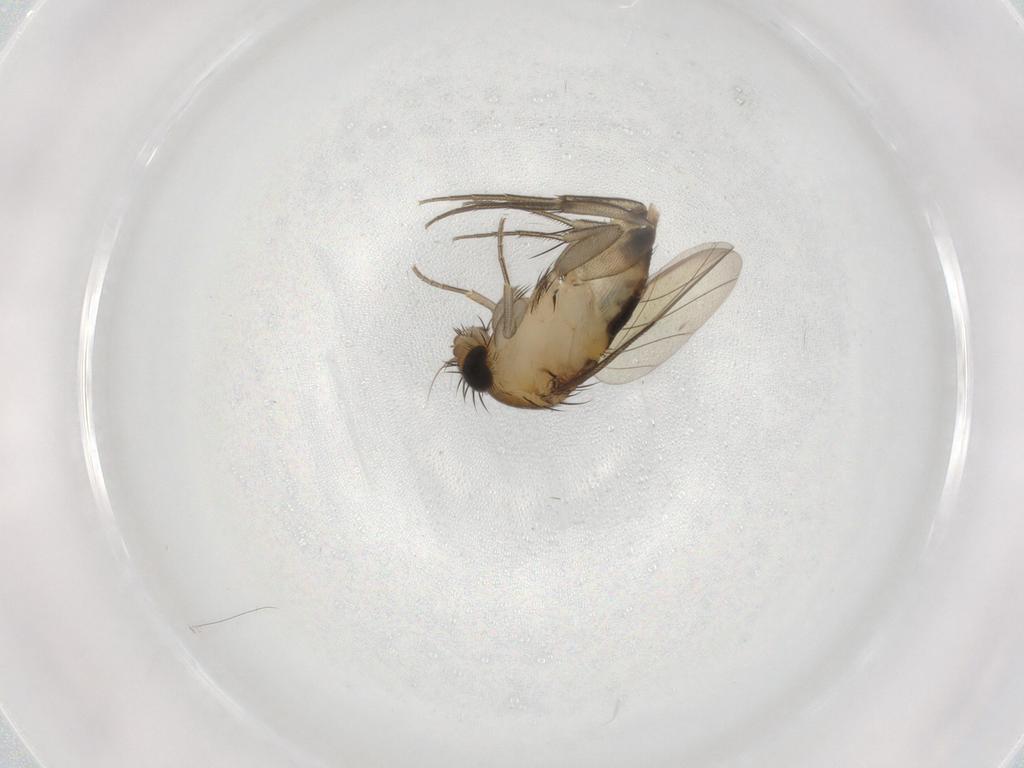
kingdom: Animalia
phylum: Arthropoda
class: Insecta
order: Diptera
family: Cecidomyiidae
